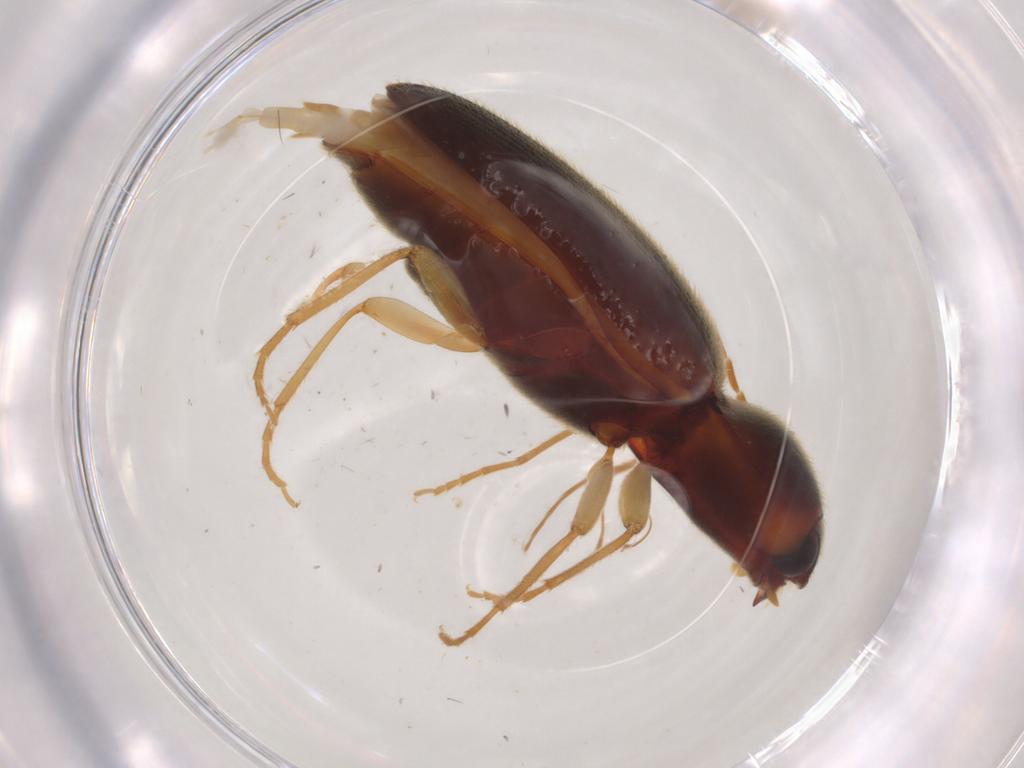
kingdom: Animalia
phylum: Arthropoda
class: Insecta
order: Coleoptera
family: Elateridae
